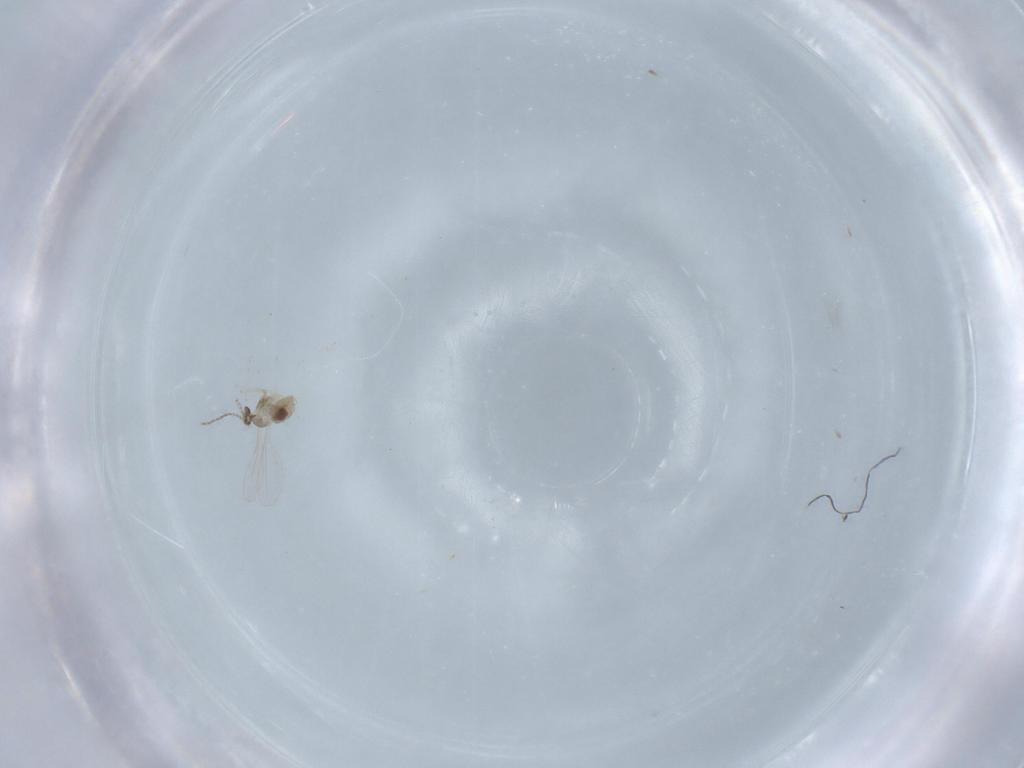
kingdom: Animalia
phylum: Arthropoda
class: Insecta
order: Diptera
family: Cecidomyiidae
